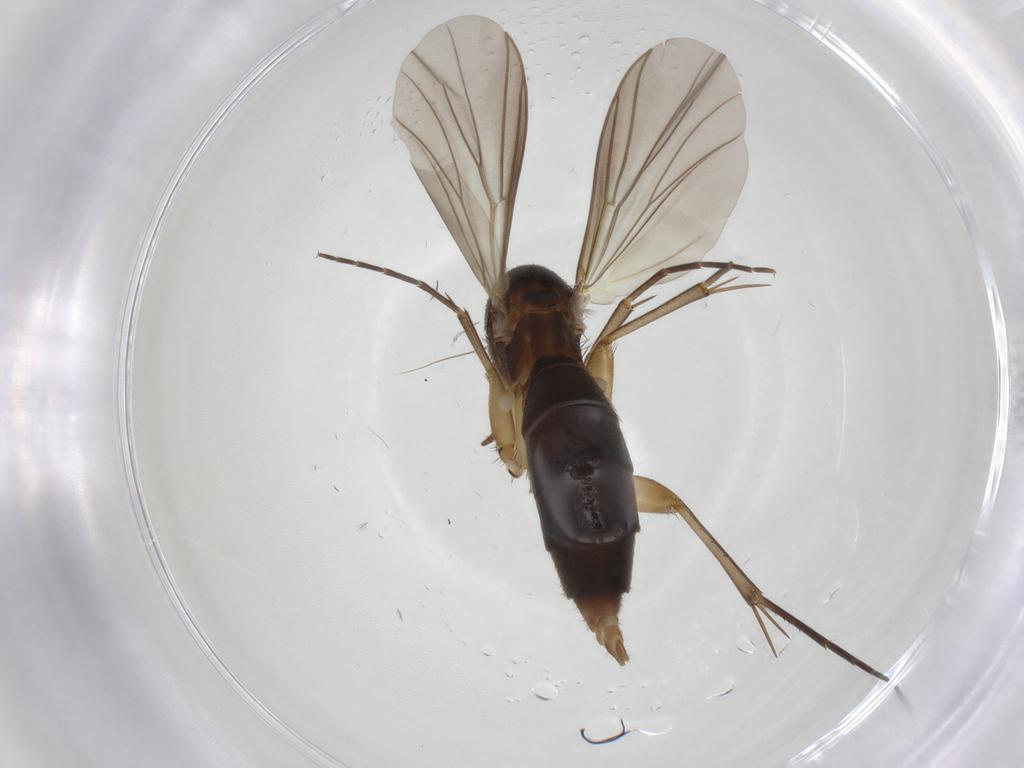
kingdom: Animalia
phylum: Arthropoda
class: Insecta
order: Diptera
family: Mycetophilidae
